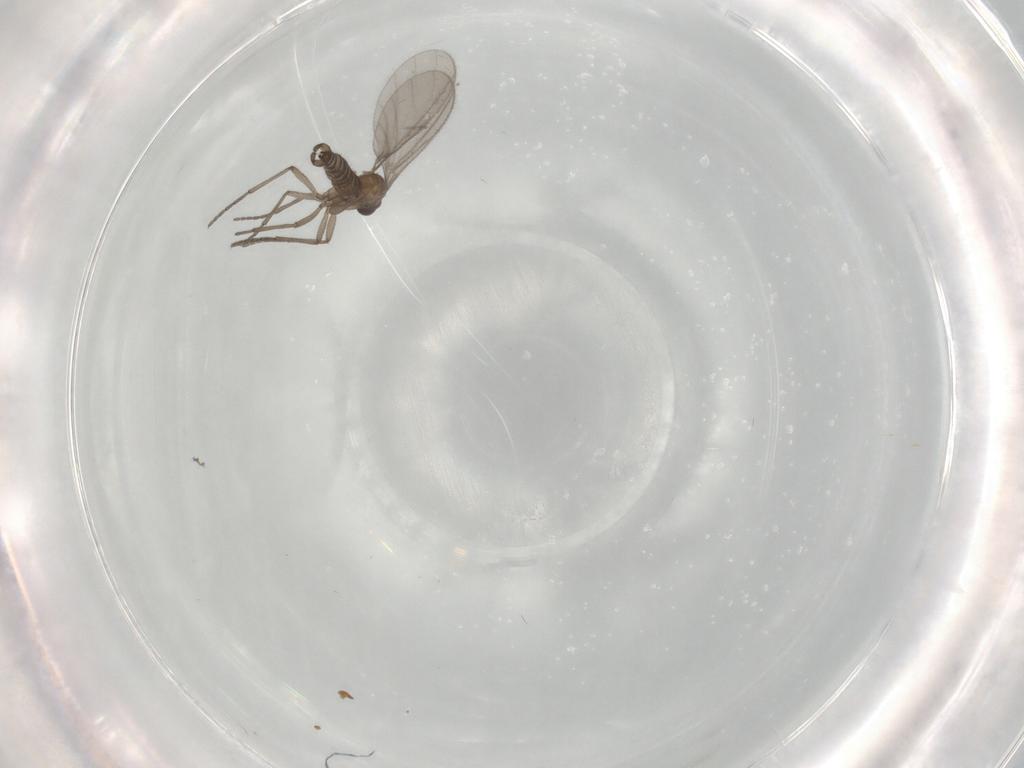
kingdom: Animalia
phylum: Arthropoda
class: Insecta
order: Diptera
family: Sciaridae
